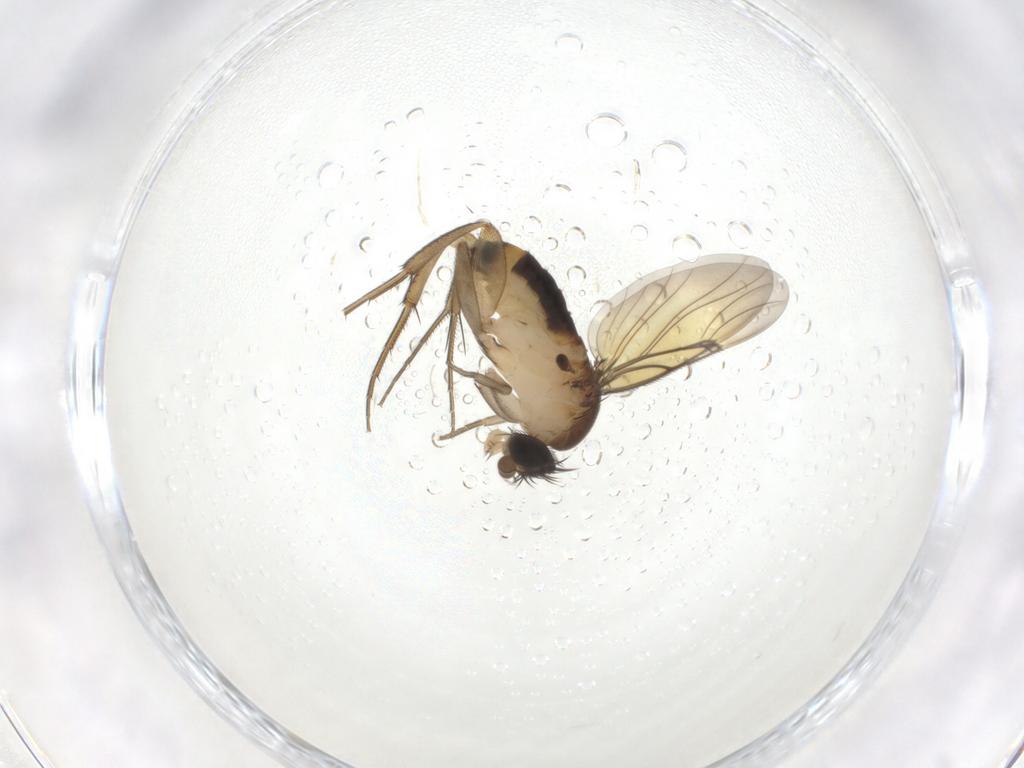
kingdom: Animalia
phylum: Arthropoda
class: Insecta
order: Diptera
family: Phoridae
